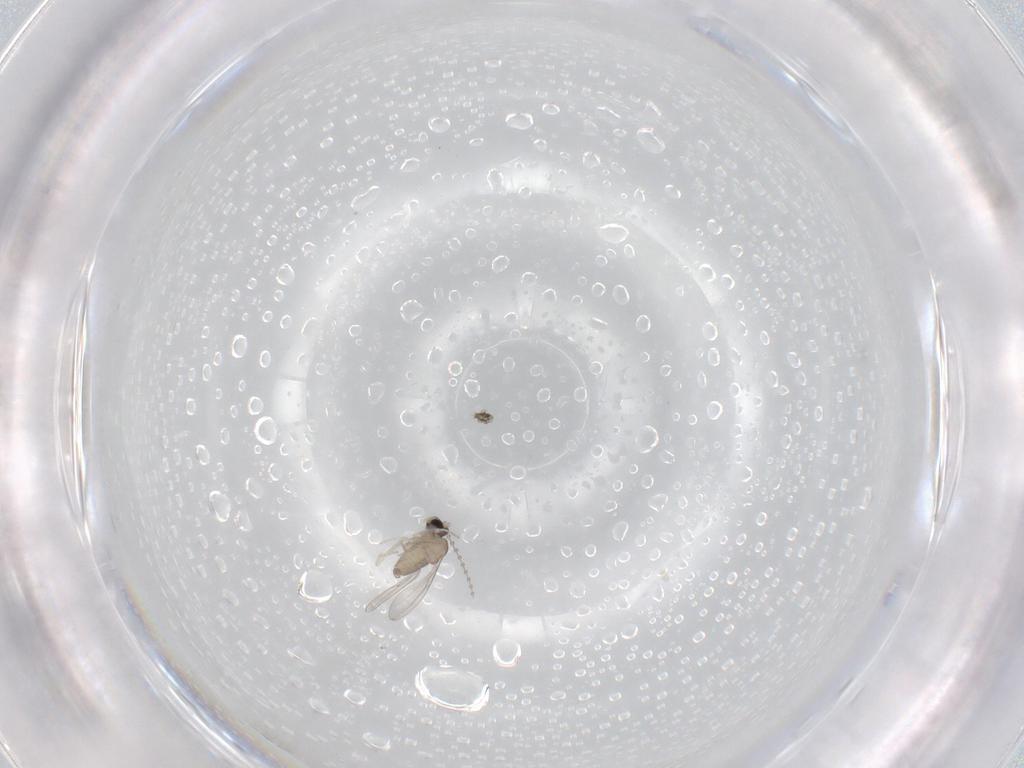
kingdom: Animalia
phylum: Arthropoda
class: Insecta
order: Diptera
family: Cecidomyiidae
